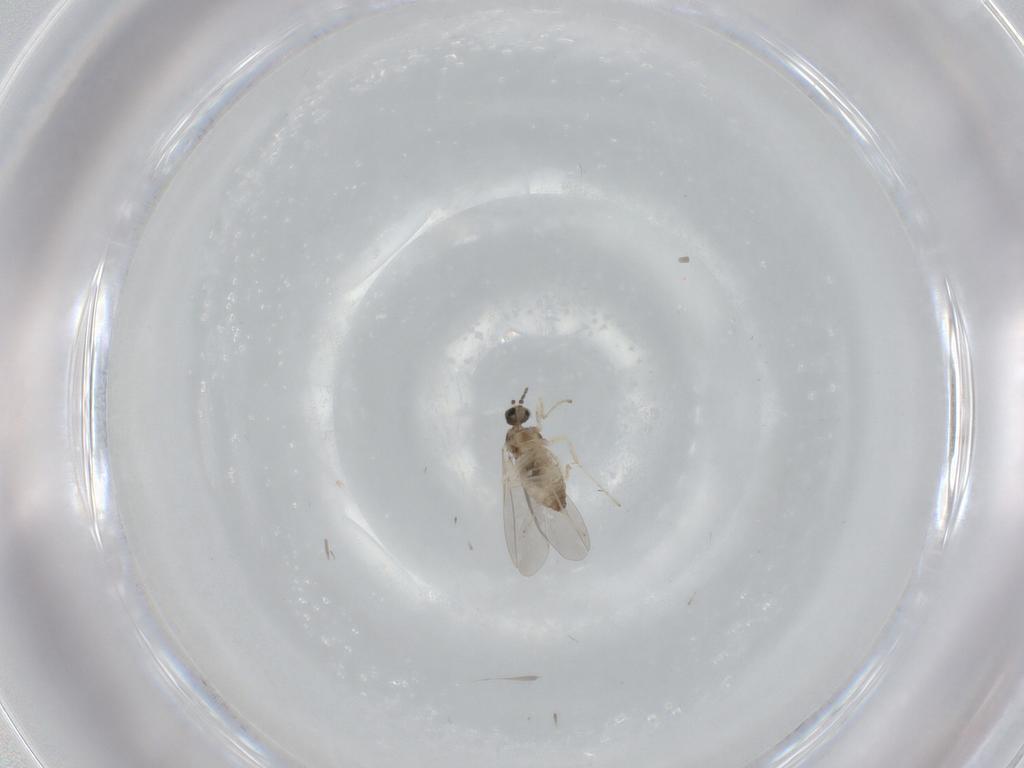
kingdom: Animalia
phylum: Arthropoda
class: Insecta
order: Diptera
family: Cecidomyiidae
